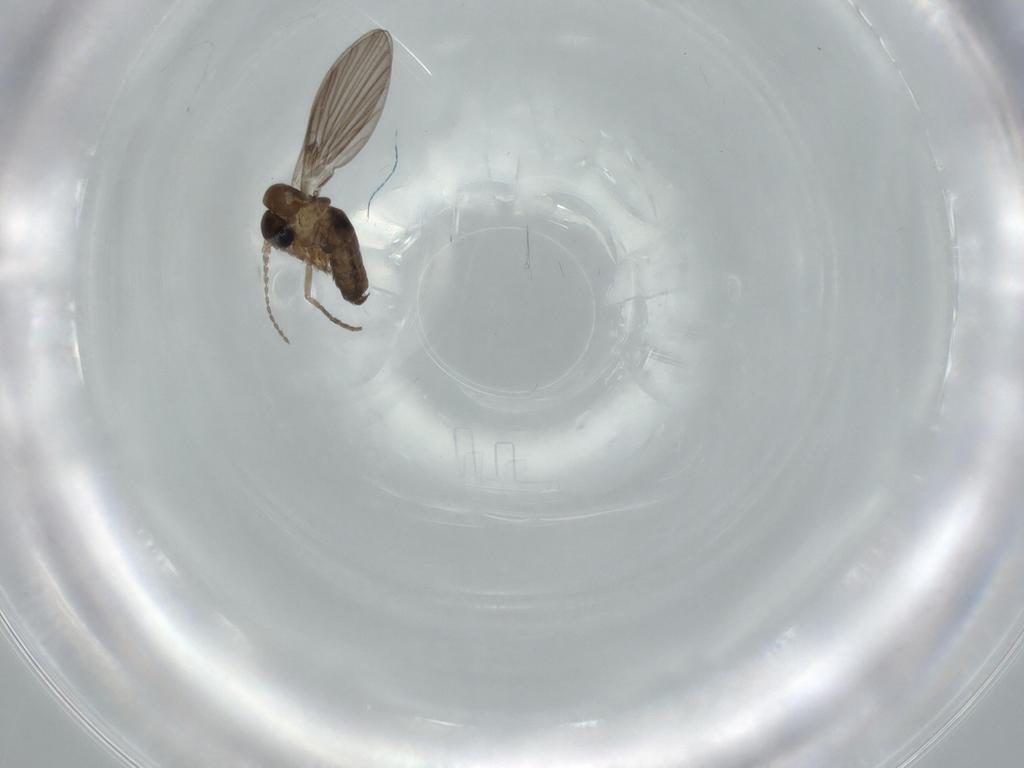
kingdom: Animalia
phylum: Arthropoda
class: Insecta
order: Diptera
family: Psychodidae
